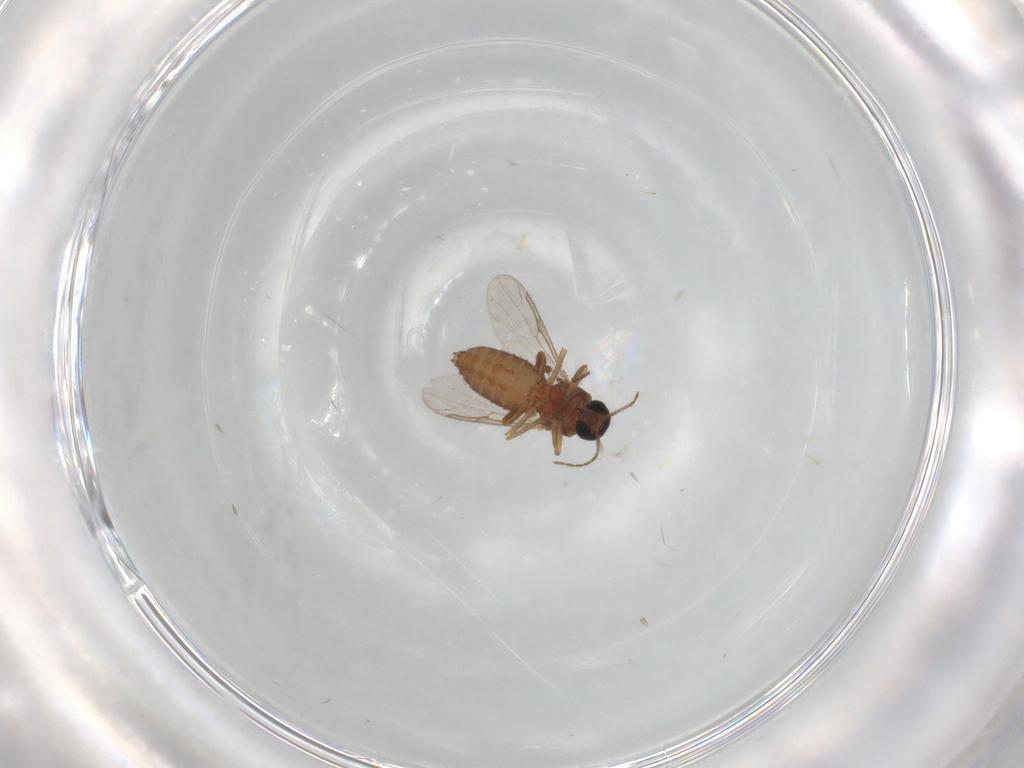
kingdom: Animalia
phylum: Arthropoda
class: Insecta
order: Diptera
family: Ceratopogonidae
